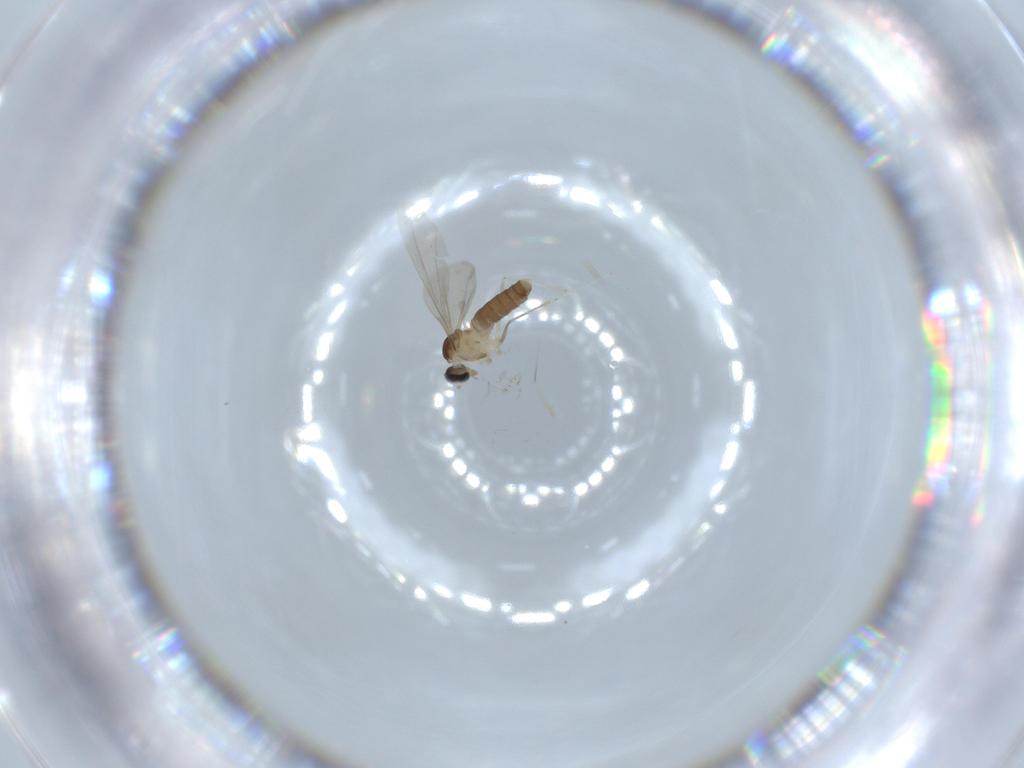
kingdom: Animalia
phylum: Arthropoda
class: Insecta
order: Diptera
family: Cecidomyiidae
